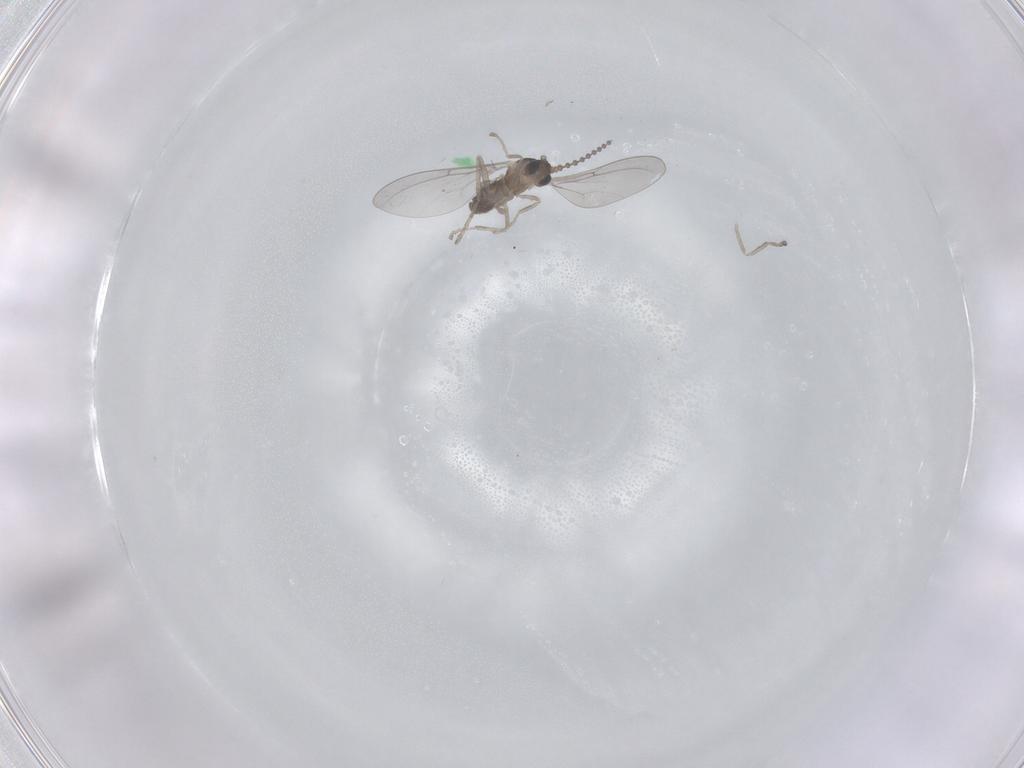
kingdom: Animalia
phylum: Arthropoda
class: Insecta
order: Diptera
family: Cecidomyiidae
